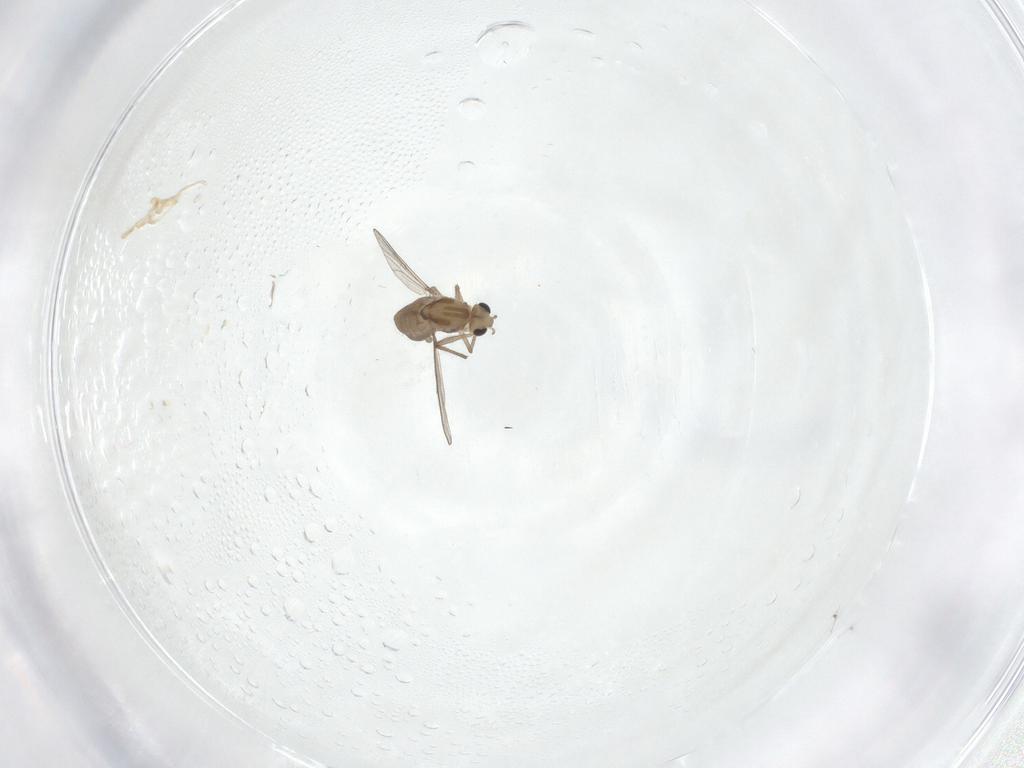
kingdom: Animalia
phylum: Arthropoda
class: Insecta
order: Diptera
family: Chironomidae
